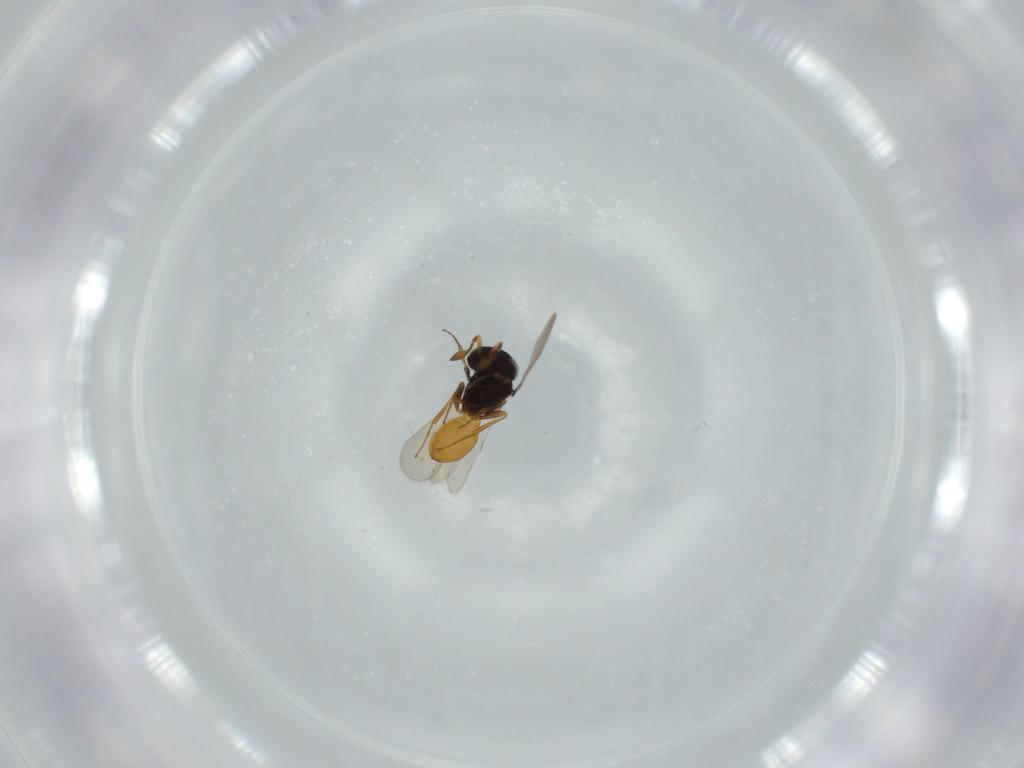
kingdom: Animalia
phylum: Arthropoda
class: Insecta
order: Hymenoptera
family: Scelionidae
